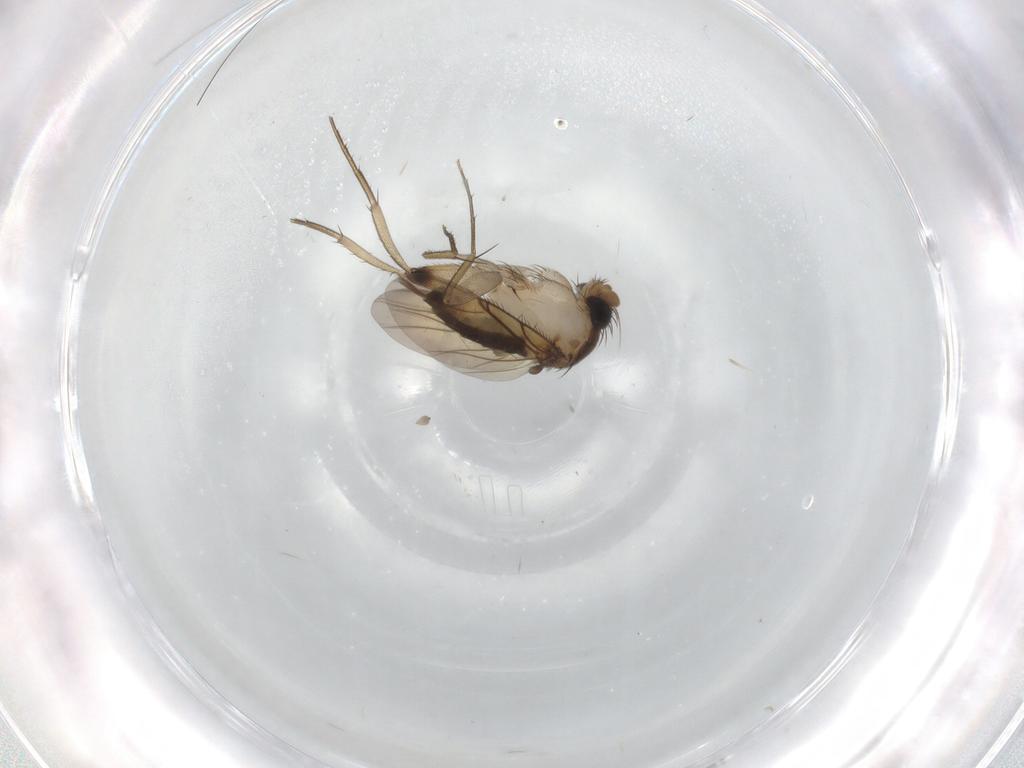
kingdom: Animalia
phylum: Arthropoda
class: Insecta
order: Diptera
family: Phoridae
